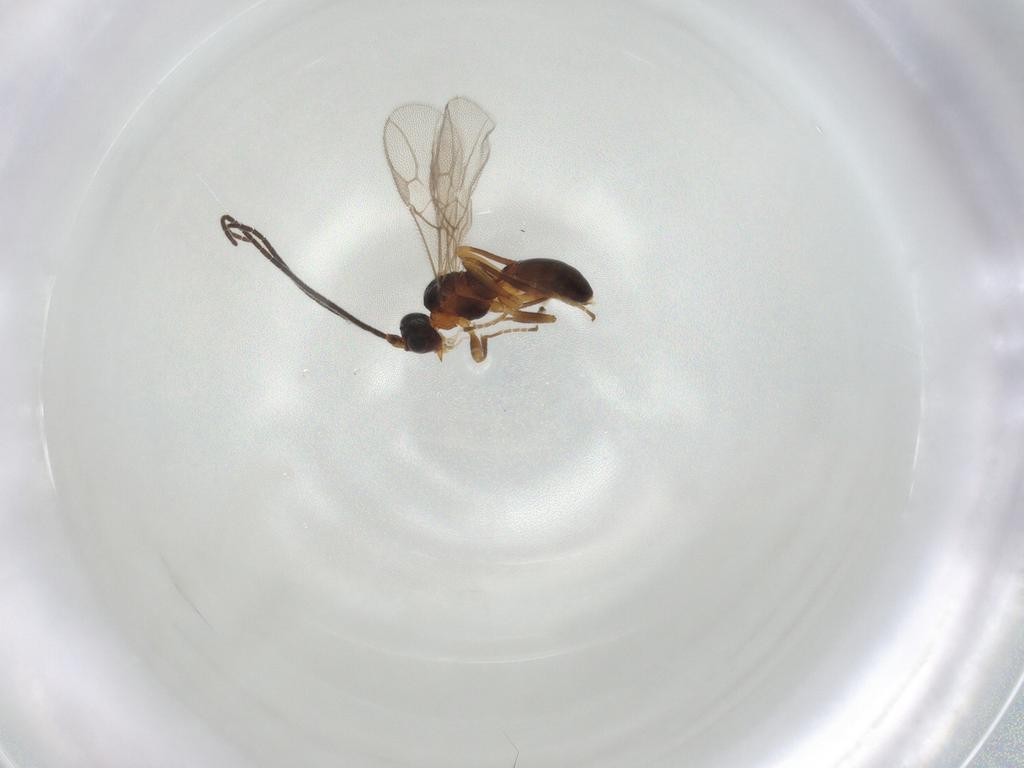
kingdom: Animalia
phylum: Arthropoda
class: Insecta
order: Hymenoptera
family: Braconidae
